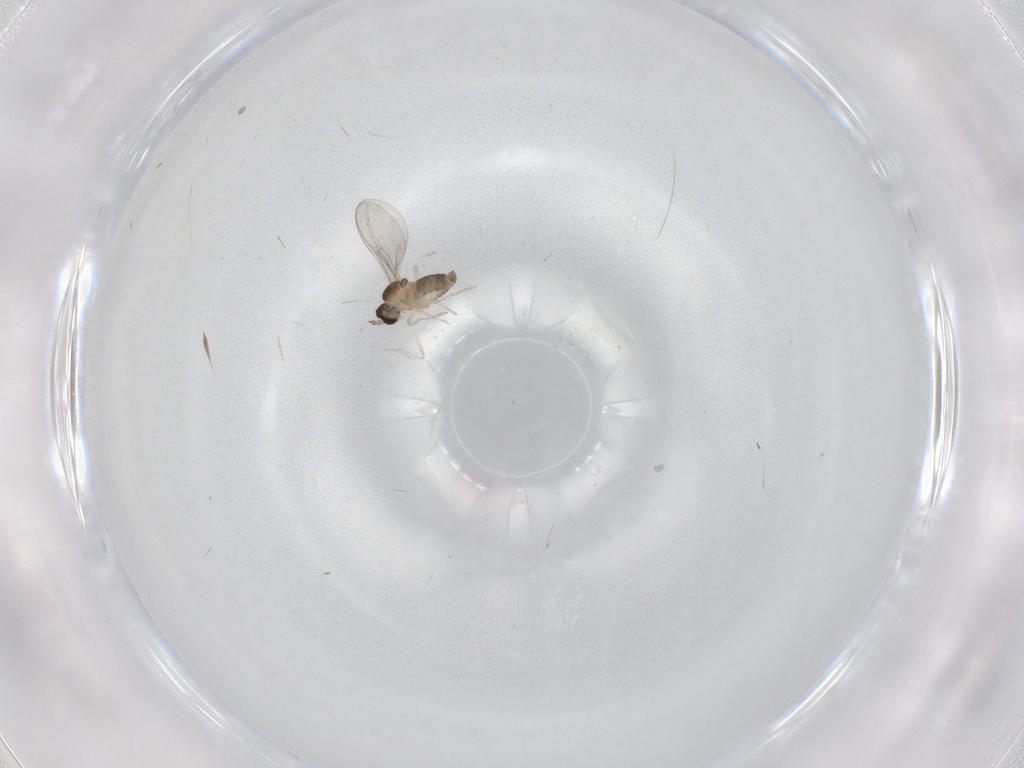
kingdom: Animalia
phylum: Arthropoda
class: Insecta
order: Diptera
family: Cecidomyiidae
